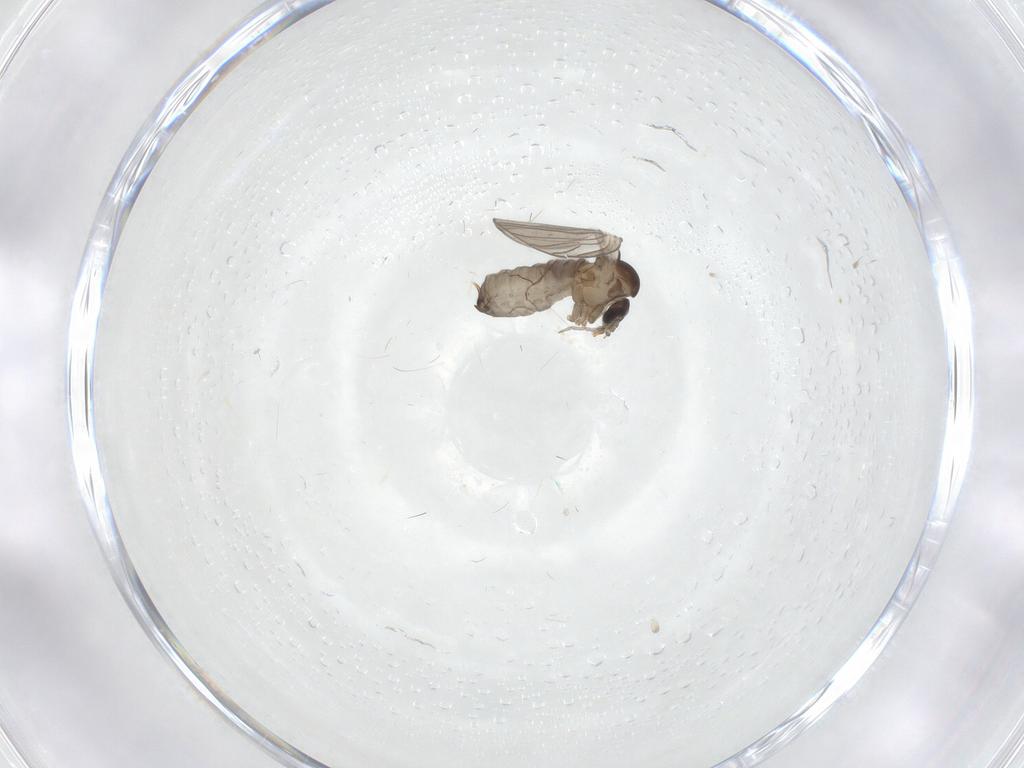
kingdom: Animalia
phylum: Arthropoda
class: Insecta
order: Diptera
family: Psychodidae
